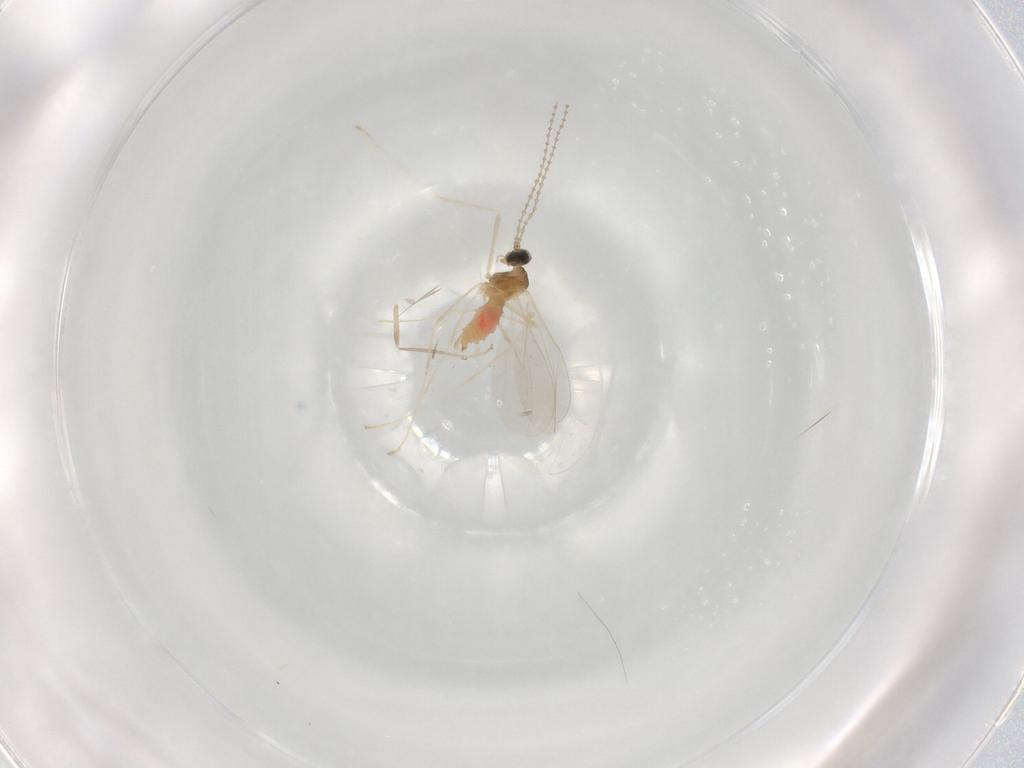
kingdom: Animalia
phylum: Arthropoda
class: Insecta
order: Diptera
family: Cecidomyiidae
